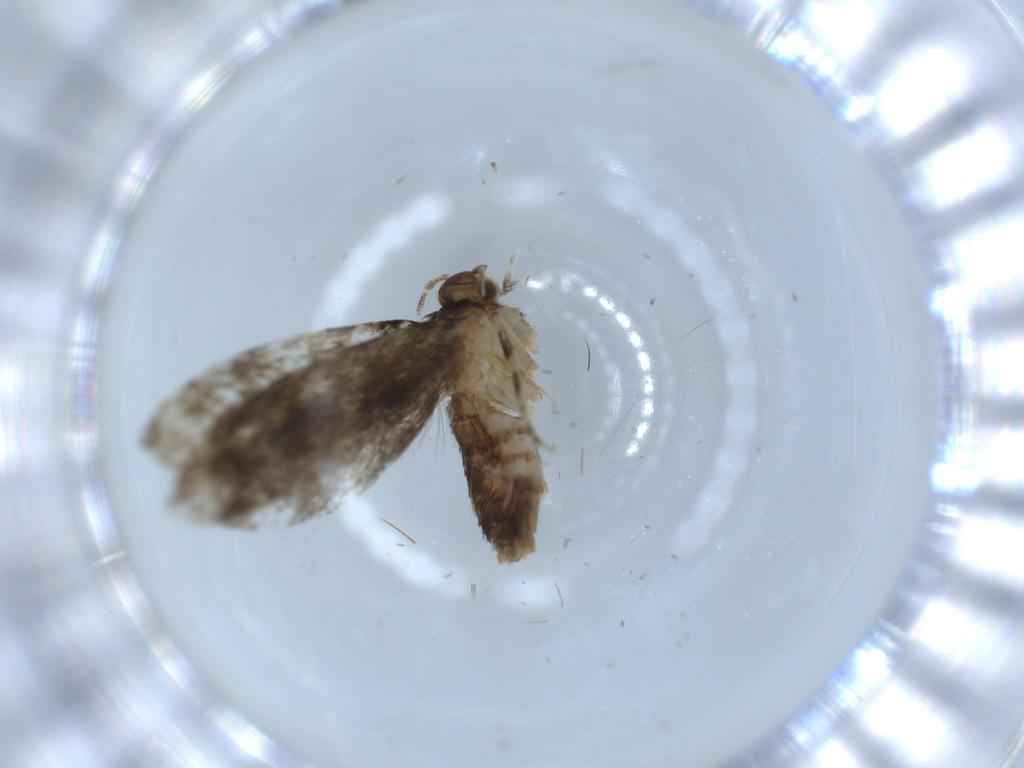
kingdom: Animalia
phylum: Arthropoda
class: Insecta
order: Lepidoptera
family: Tineidae
